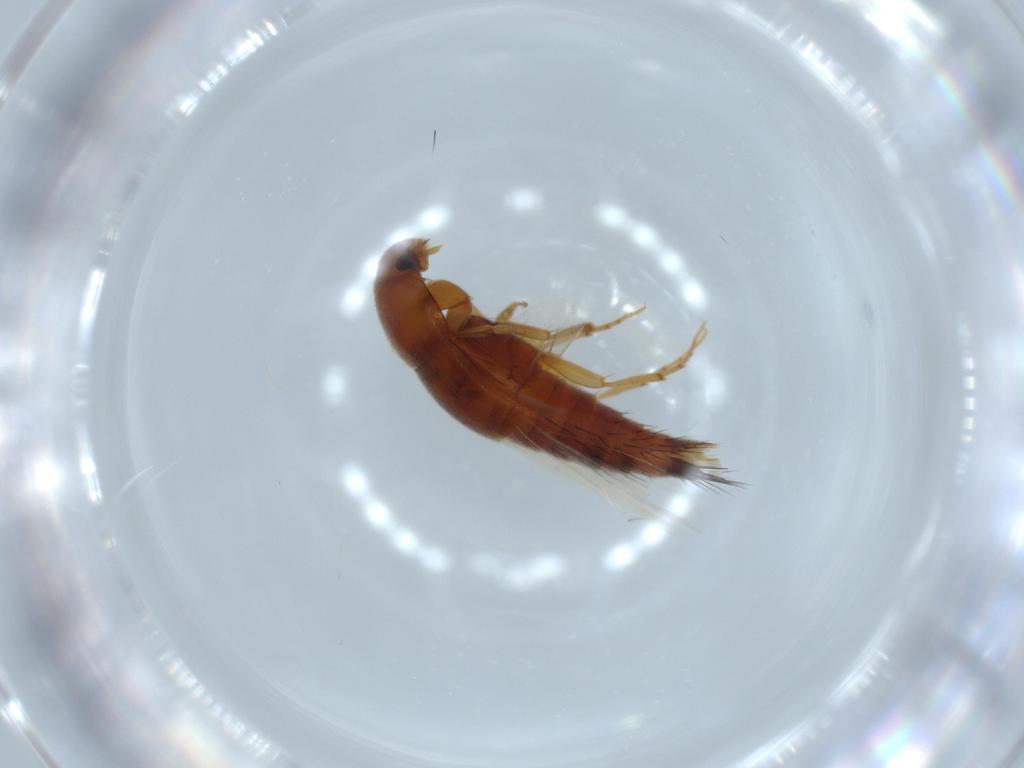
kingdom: Animalia
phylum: Arthropoda
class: Insecta
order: Coleoptera
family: Staphylinidae
